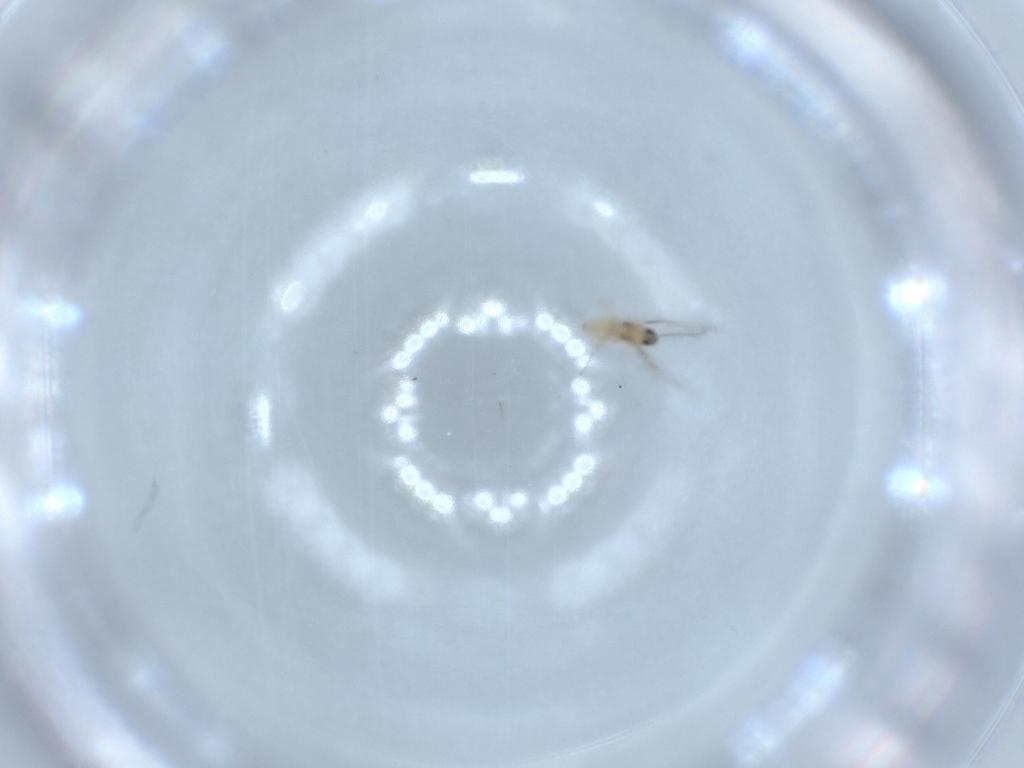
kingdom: Animalia
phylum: Arthropoda
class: Insecta
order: Diptera
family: Cecidomyiidae
